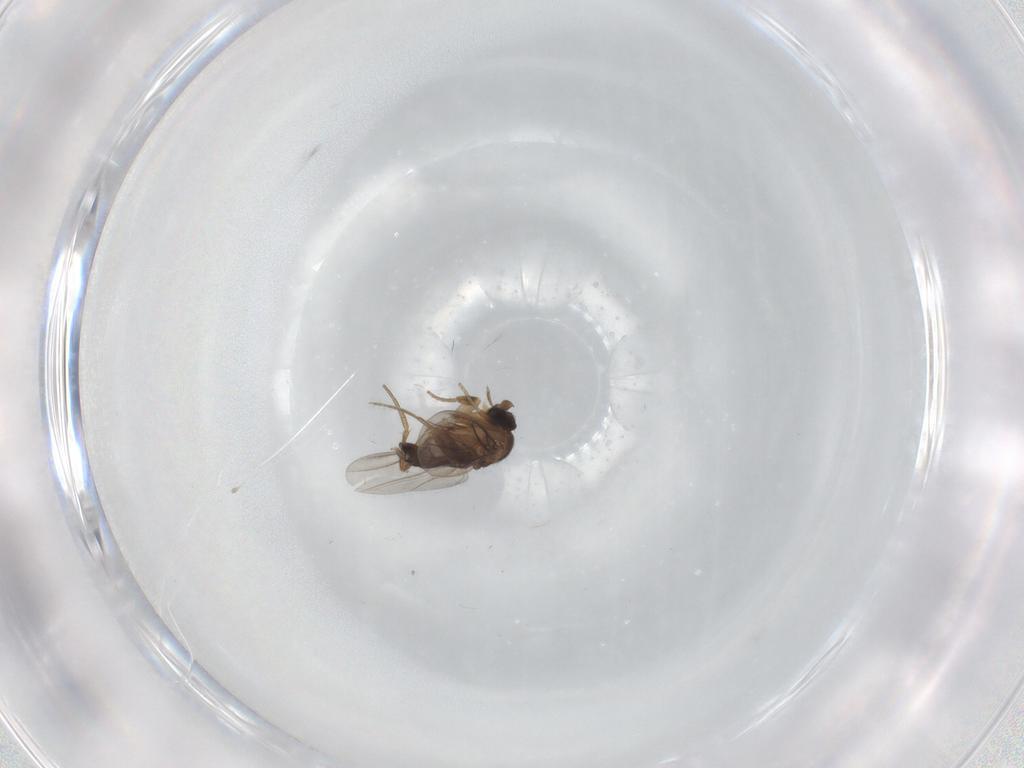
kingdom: Animalia
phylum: Arthropoda
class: Insecta
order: Diptera
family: Phoridae
